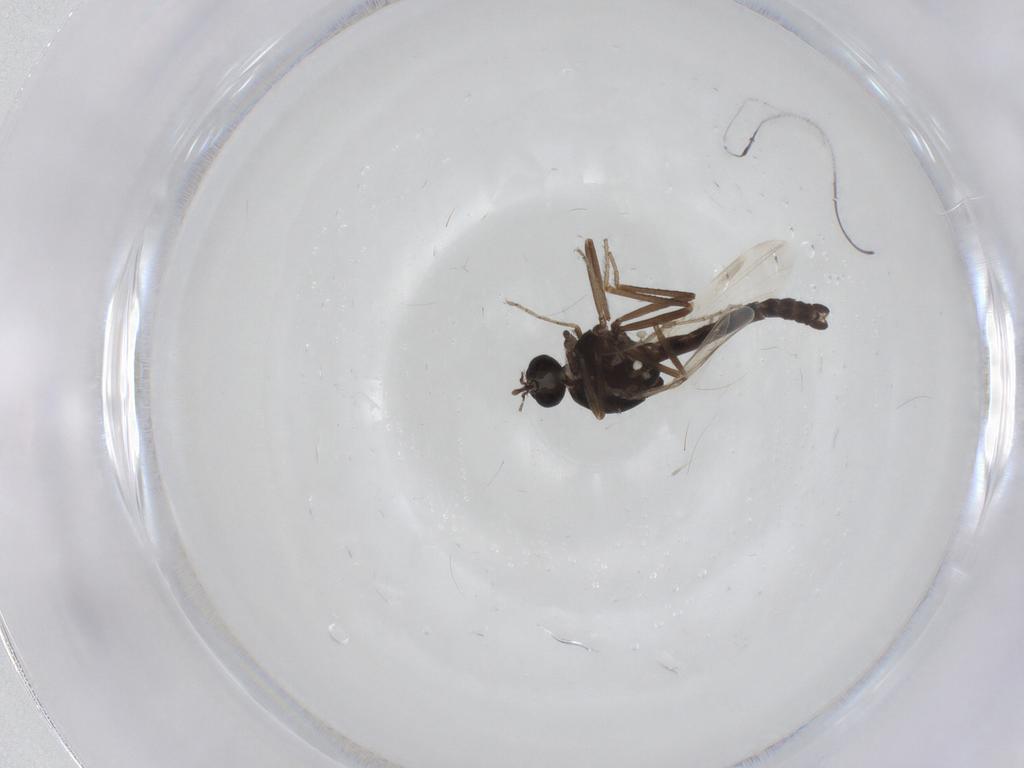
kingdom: Animalia
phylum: Arthropoda
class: Insecta
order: Diptera
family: Ceratopogonidae
